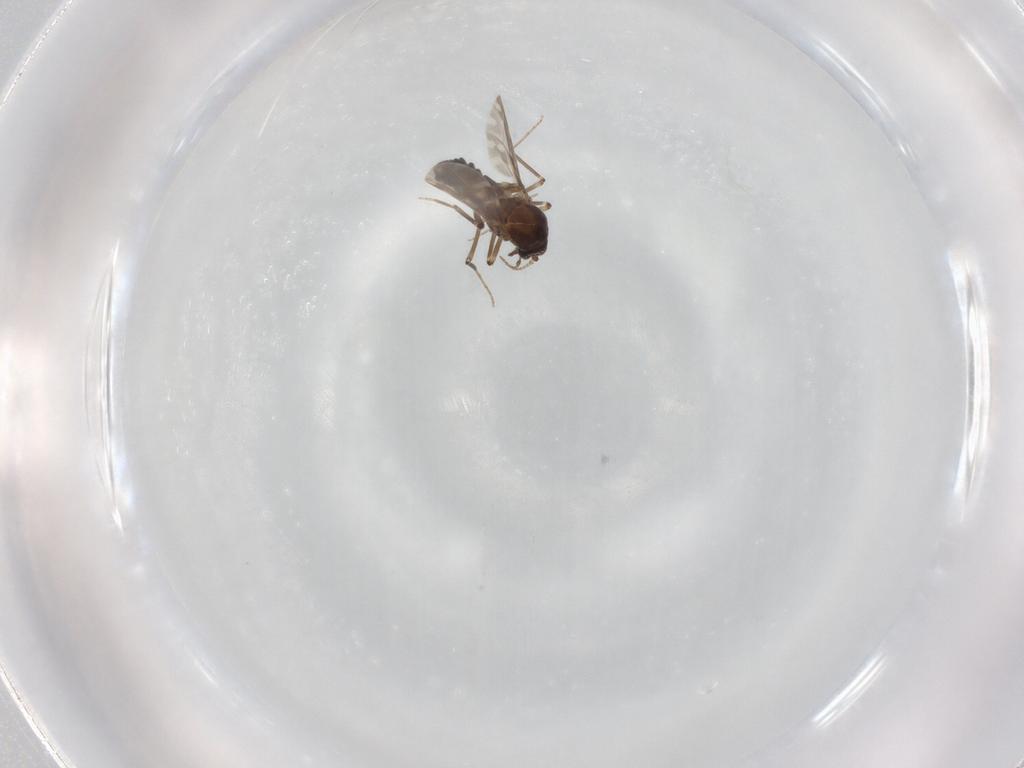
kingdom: Animalia
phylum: Arthropoda
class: Insecta
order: Diptera
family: Ceratopogonidae
